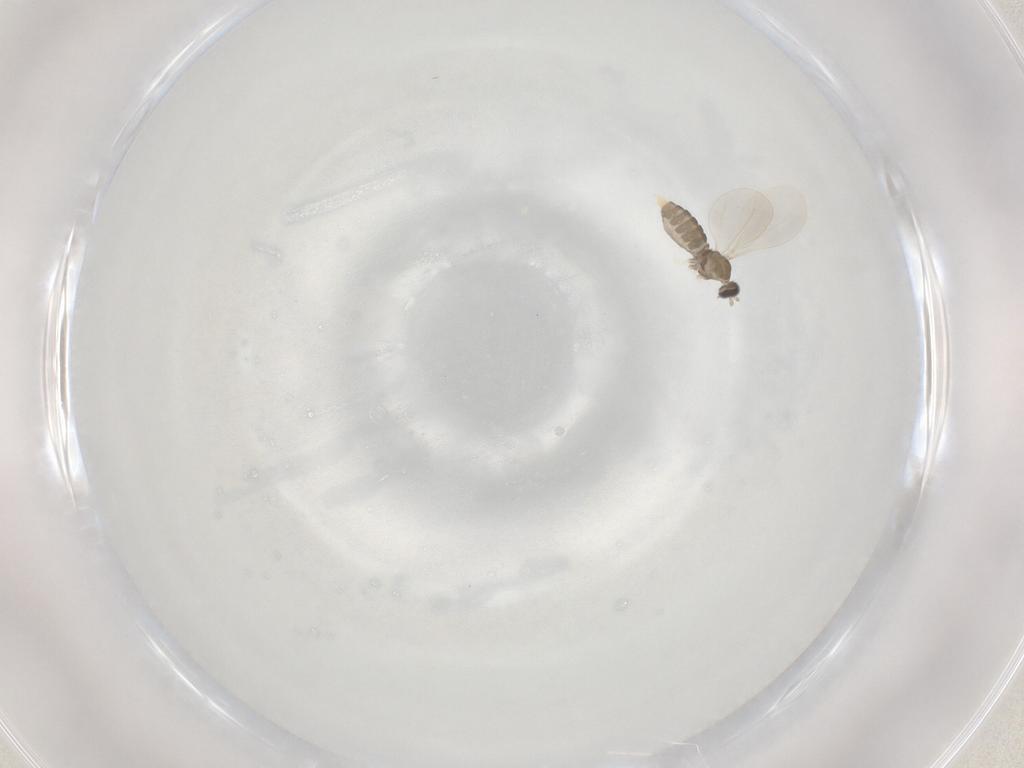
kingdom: Animalia
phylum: Arthropoda
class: Insecta
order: Diptera
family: Cecidomyiidae
